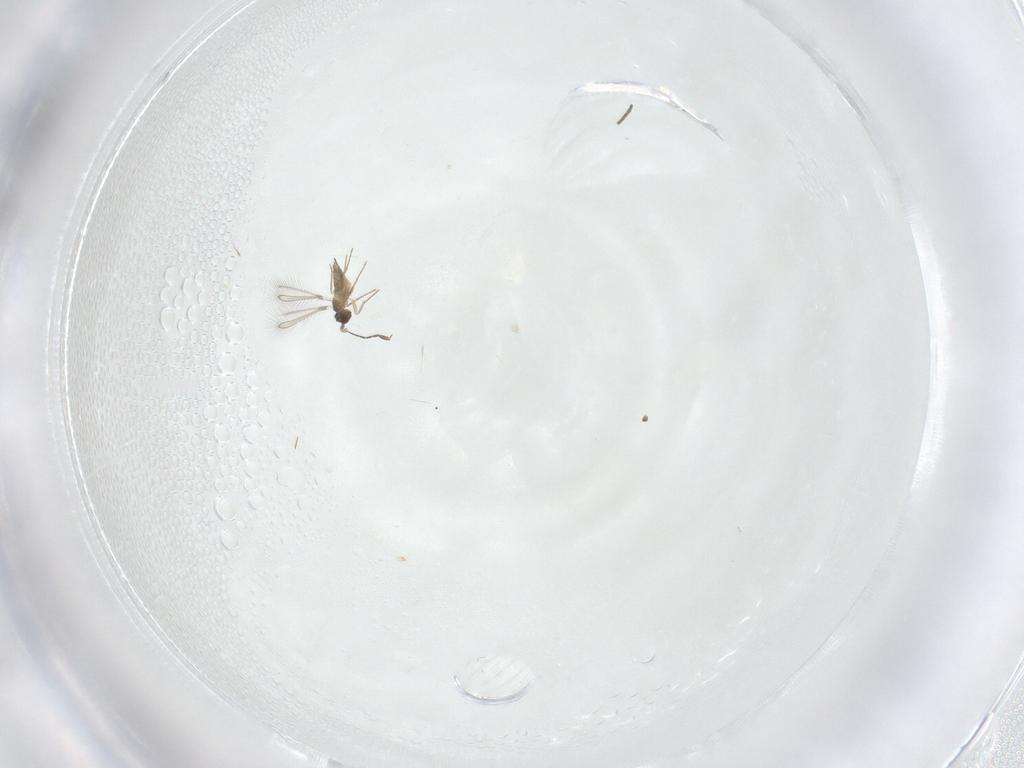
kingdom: Animalia
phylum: Arthropoda
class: Insecta
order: Hymenoptera
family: Mymaridae
